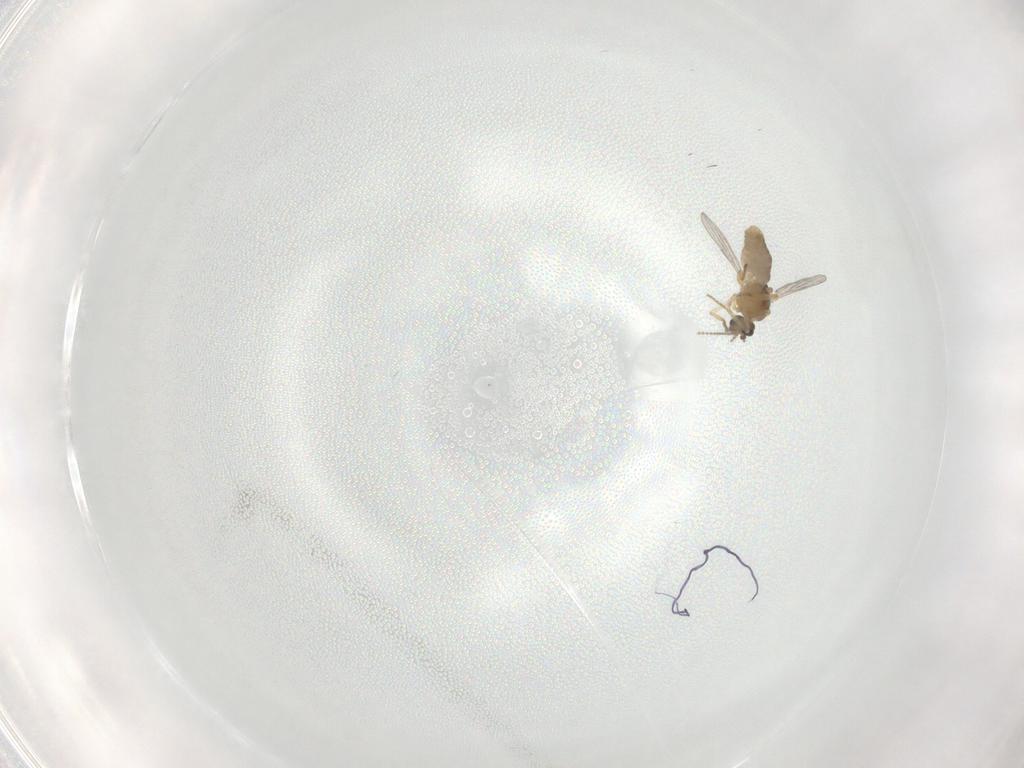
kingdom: Animalia
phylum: Arthropoda
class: Insecta
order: Diptera
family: Ceratopogonidae
